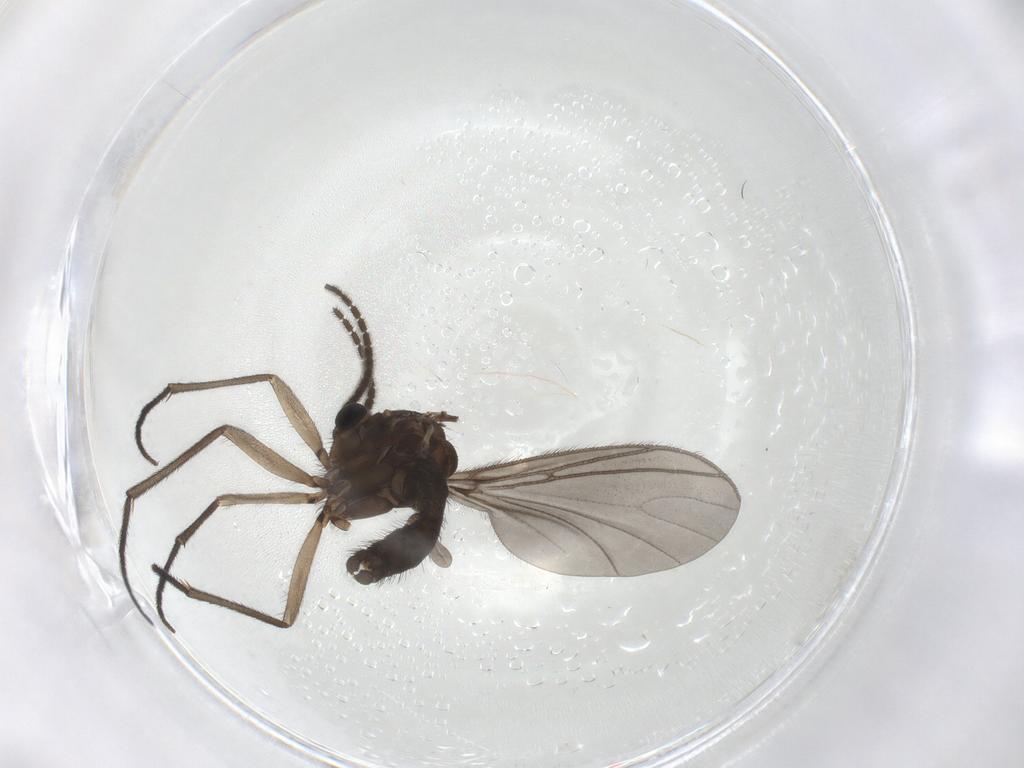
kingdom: Animalia
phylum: Arthropoda
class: Insecta
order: Diptera
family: Sciaridae
